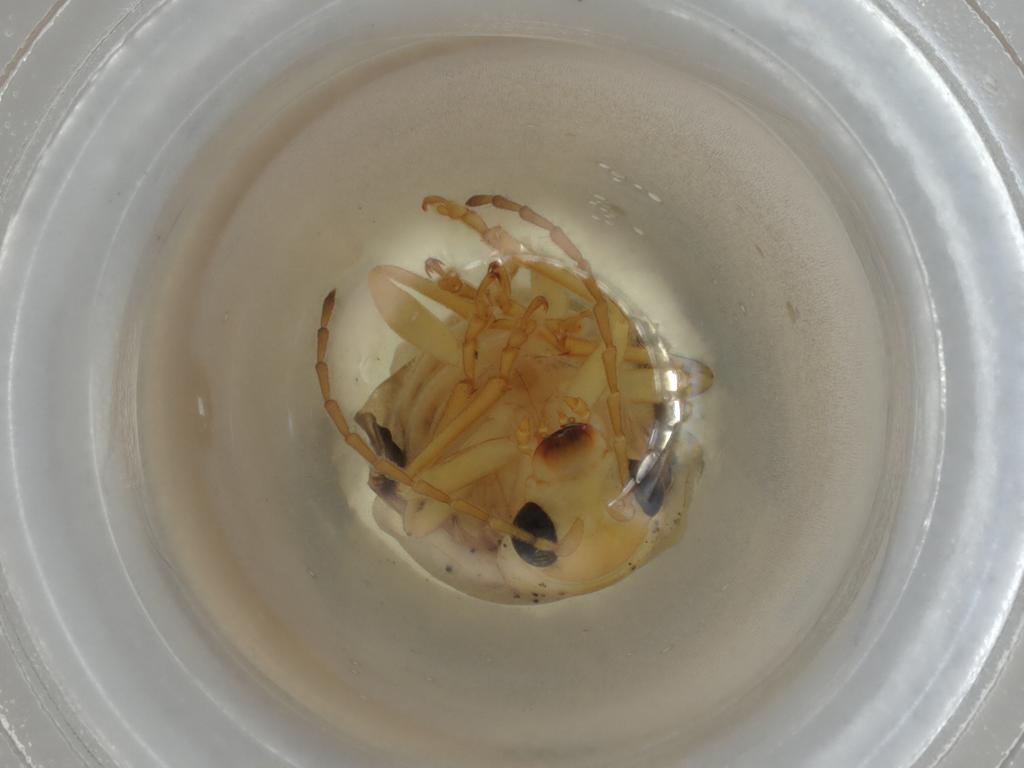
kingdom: Animalia
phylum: Arthropoda
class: Insecta
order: Coleoptera
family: Chrysomelidae
